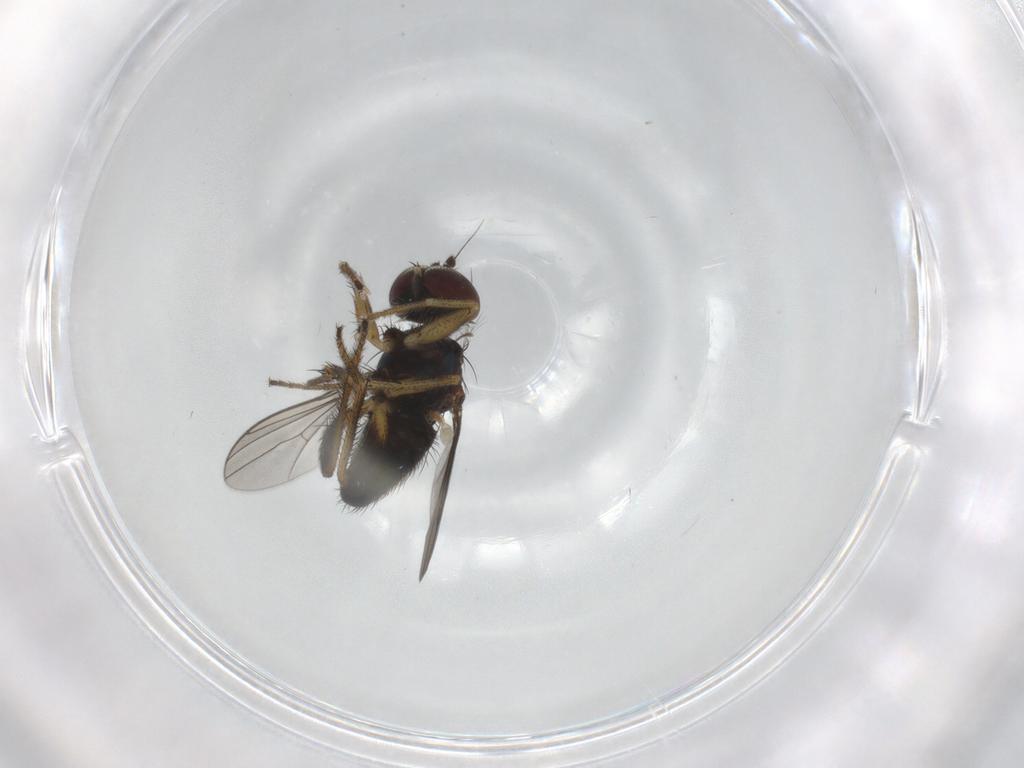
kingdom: Animalia
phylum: Arthropoda
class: Insecta
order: Diptera
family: Dolichopodidae
